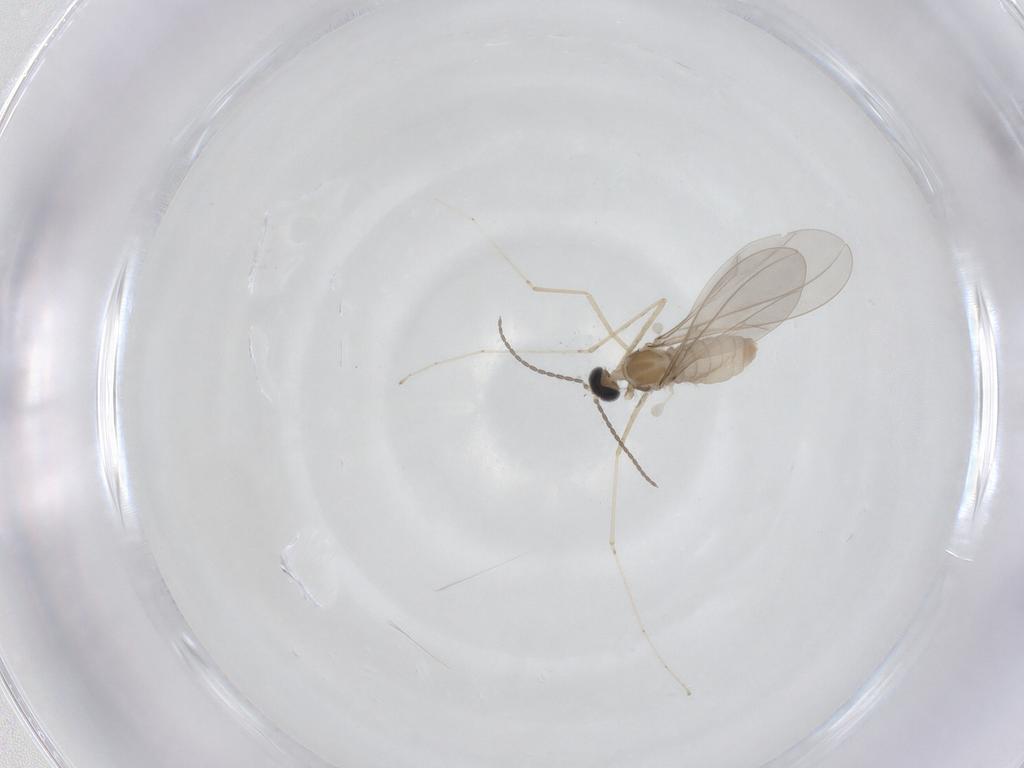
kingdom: Animalia
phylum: Arthropoda
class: Insecta
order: Diptera
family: Cecidomyiidae
